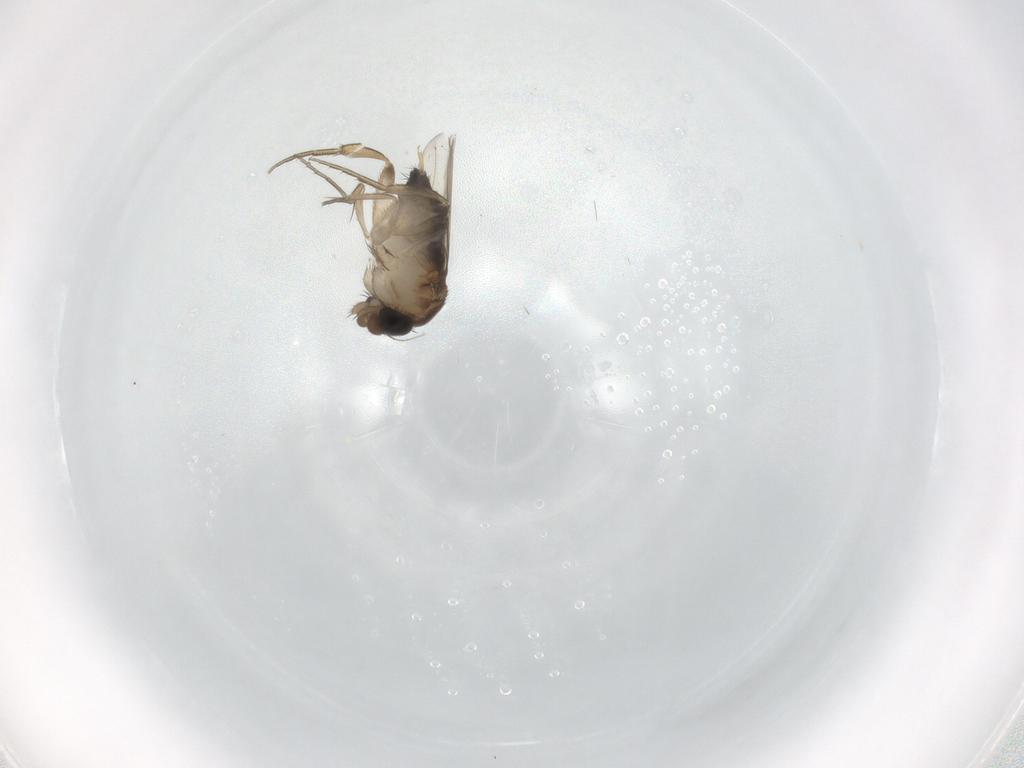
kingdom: Animalia
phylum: Arthropoda
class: Insecta
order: Diptera
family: Phoridae
